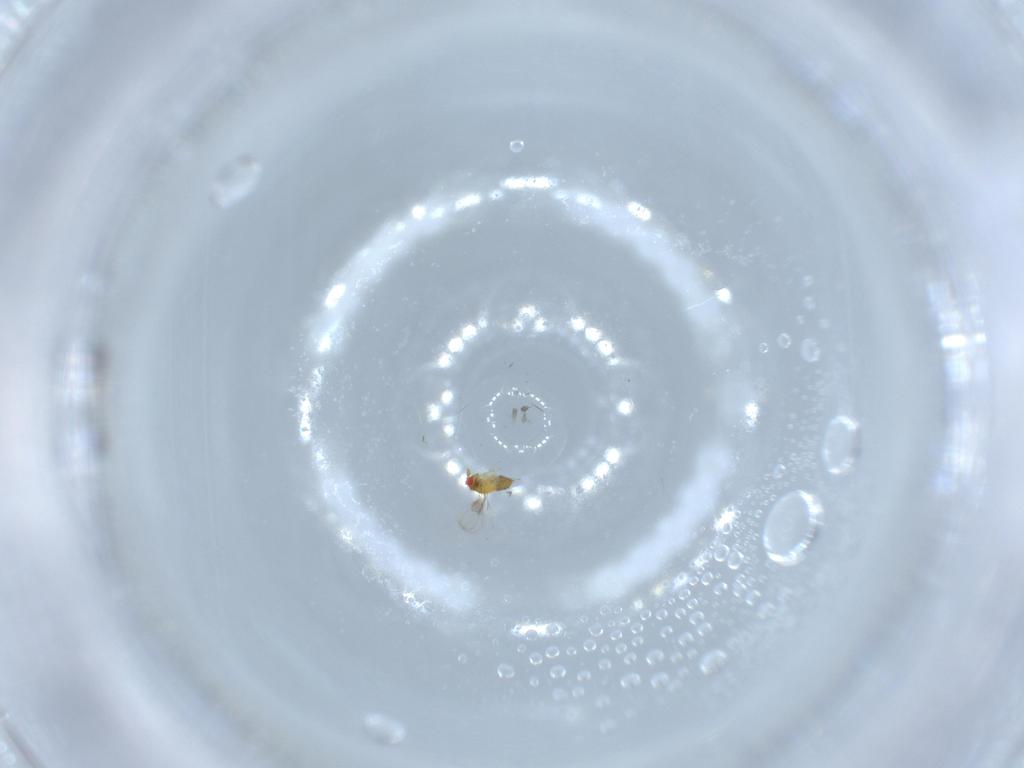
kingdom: Animalia
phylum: Arthropoda
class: Insecta
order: Hymenoptera
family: Trichogrammatidae
